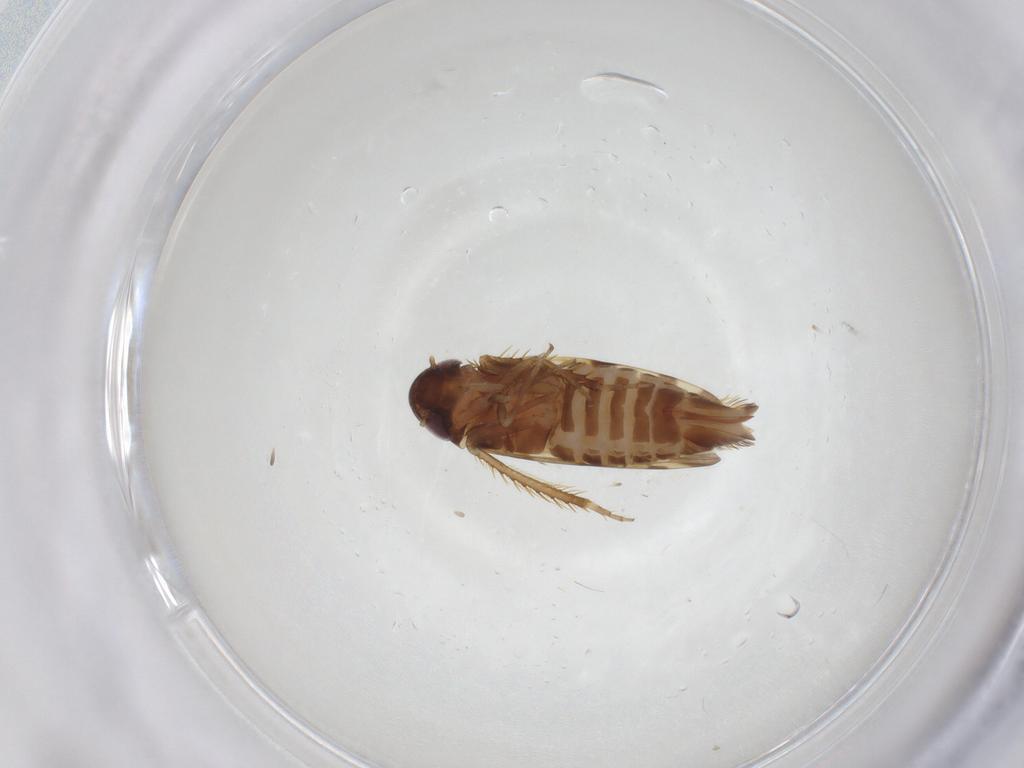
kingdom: Animalia
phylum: Arthropoda
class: Insecta
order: Hemiptera
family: Cicadellidae
